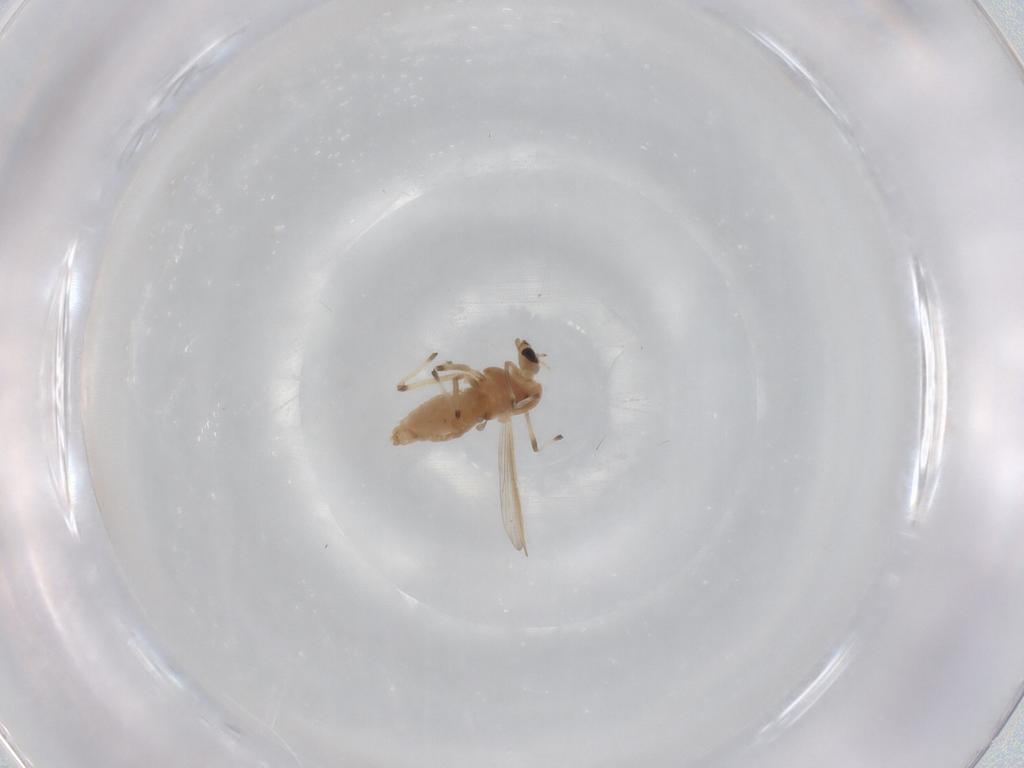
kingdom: Animalia
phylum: Arthropoda
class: Insecta
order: Diptera
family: Chironomidae
